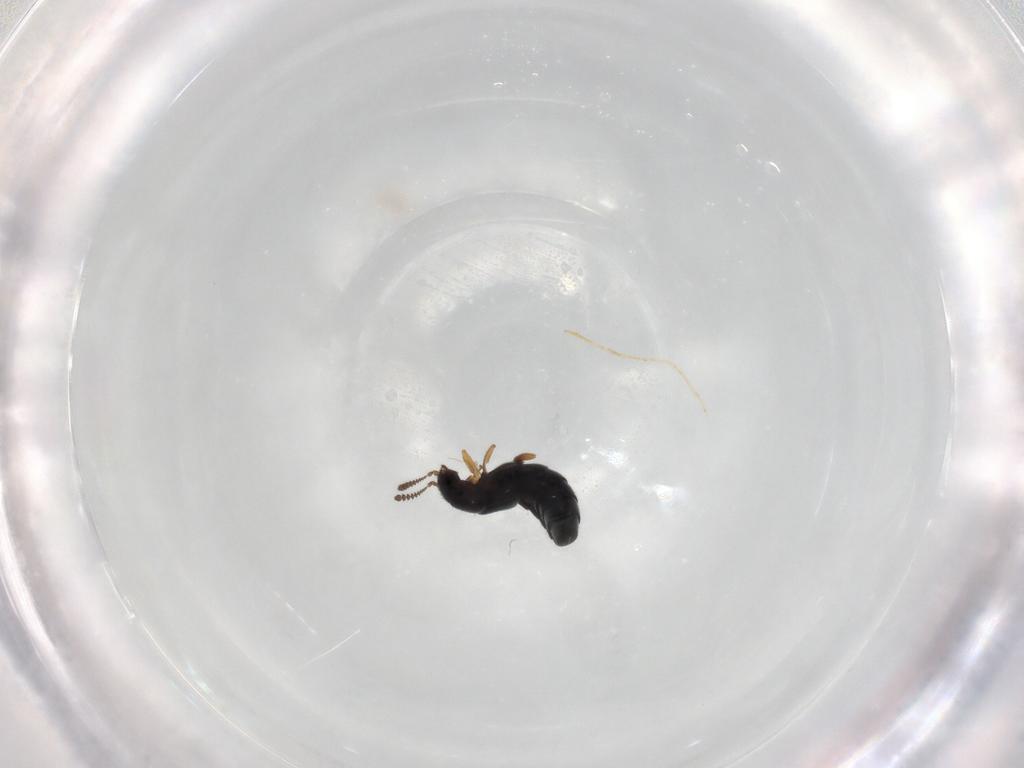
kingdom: Animalia
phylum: Arthropoda
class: Insecta
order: Coleoptera
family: Staphylinidae
